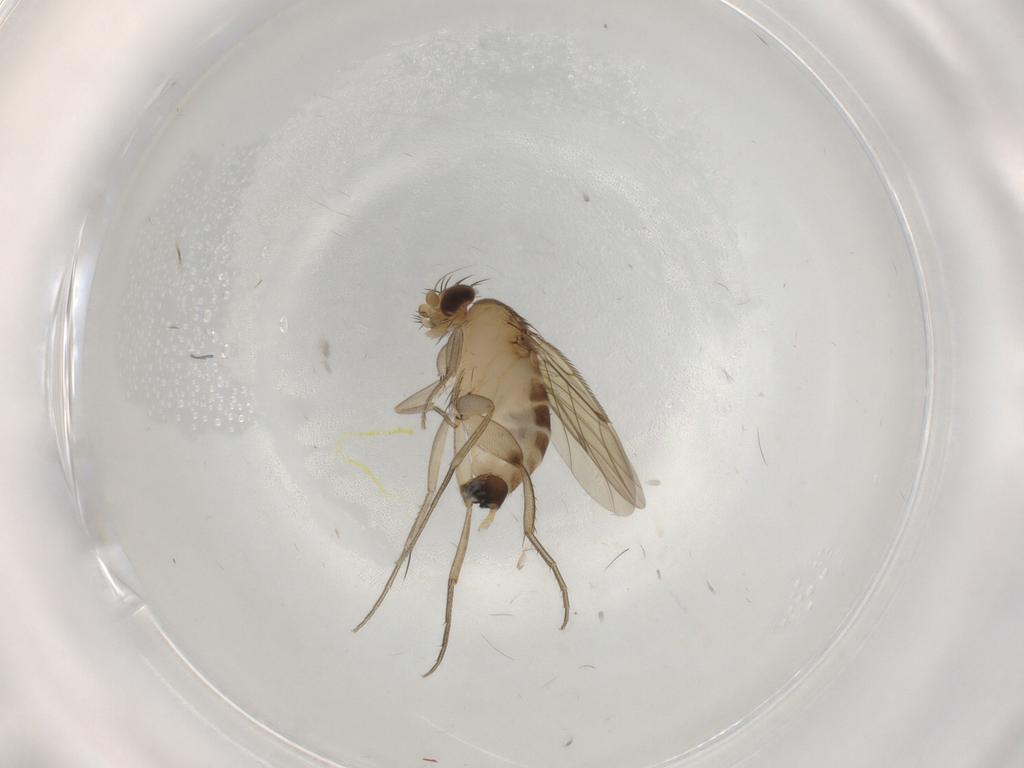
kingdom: Animalia
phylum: Arthropoda
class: Insecta
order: Diptera
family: Phoridae
